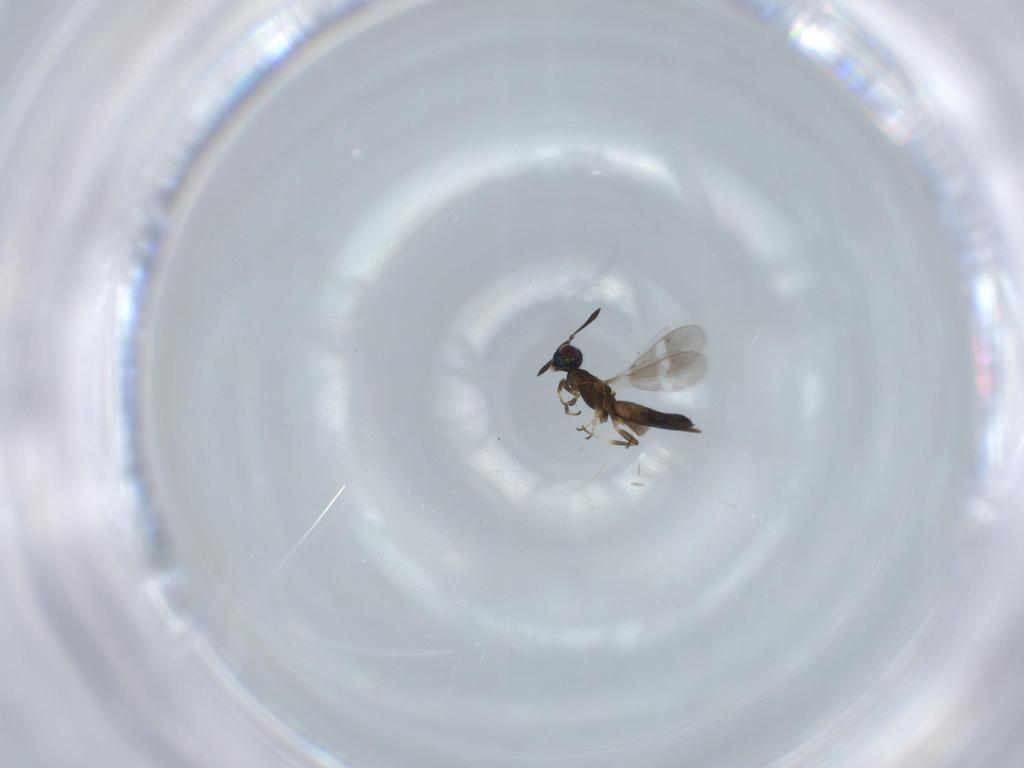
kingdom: Animalia
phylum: Arthropoda
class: Insecta
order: Hymenoptera
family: Eupelmidae
